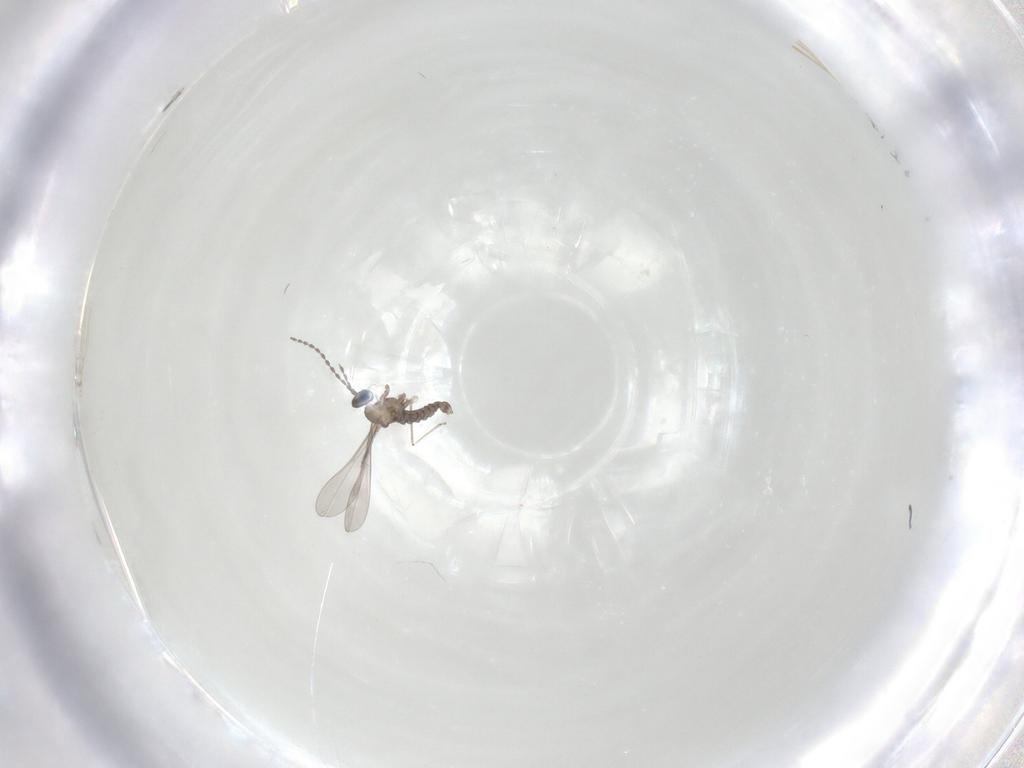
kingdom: Animalia
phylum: Arthropoda
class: Insecta
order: Diptera
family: Cecidomyiidae
